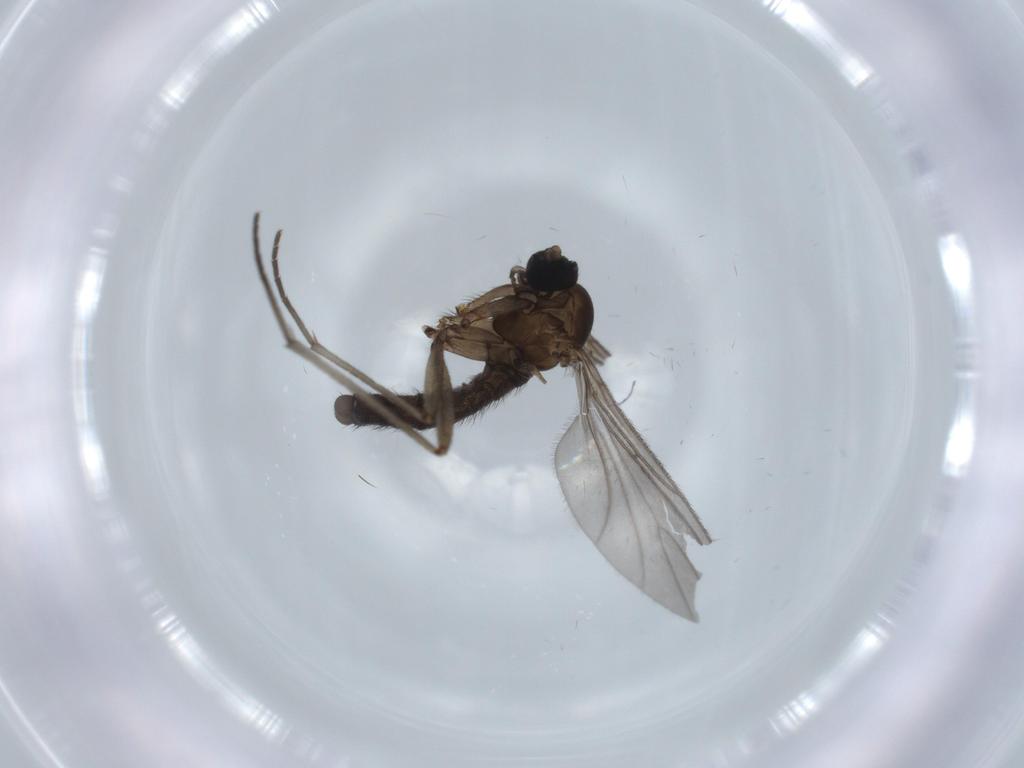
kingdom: Animalia
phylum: Arthropoda
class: Insecta
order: Diptera
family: Sciaridae
